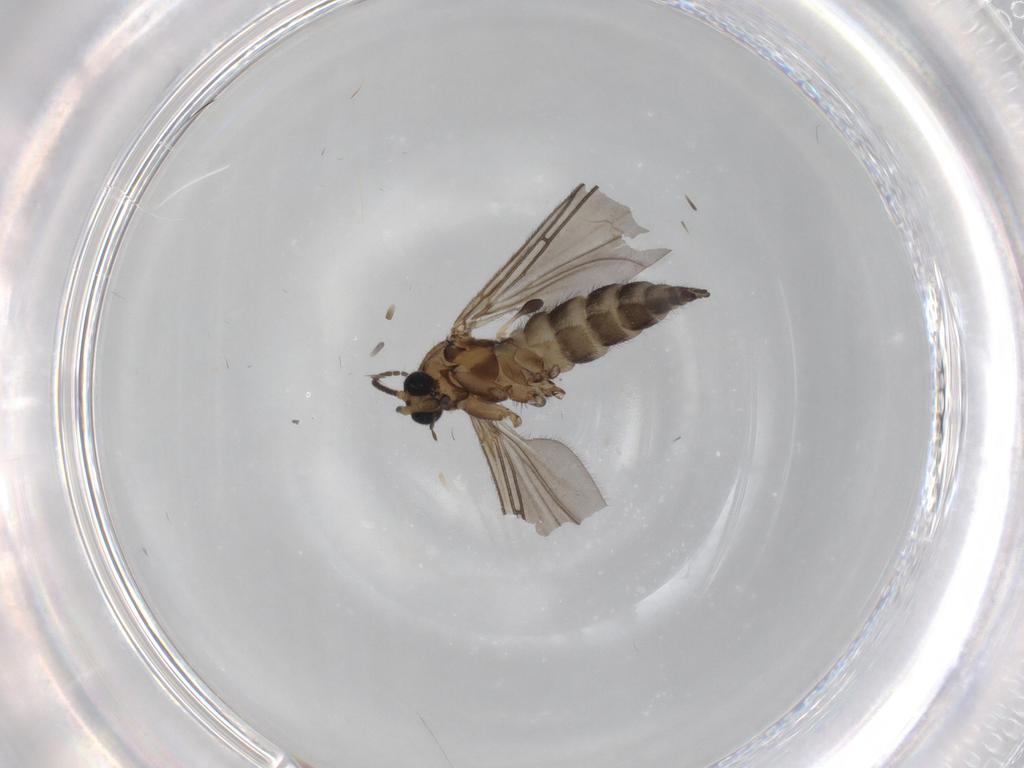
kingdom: Animalia
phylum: Arthropoda
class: Insecta
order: Diptera
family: Sciaridae
